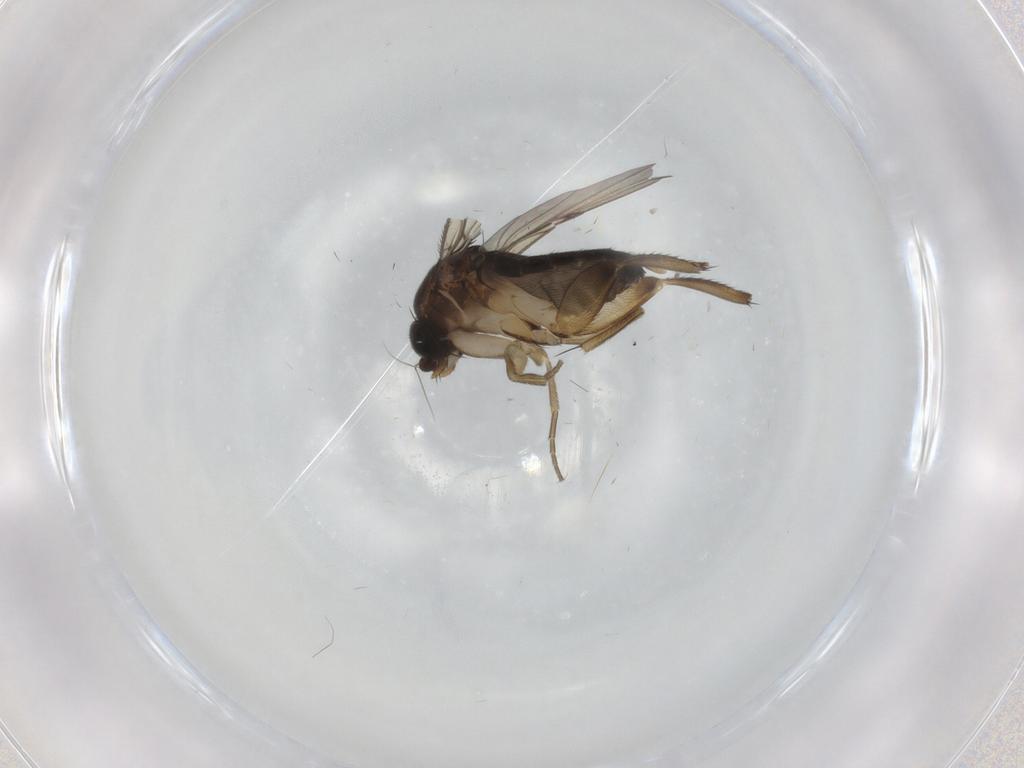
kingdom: Animalia
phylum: Arthropoda
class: Insecta
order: Diptera
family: Phoridae
